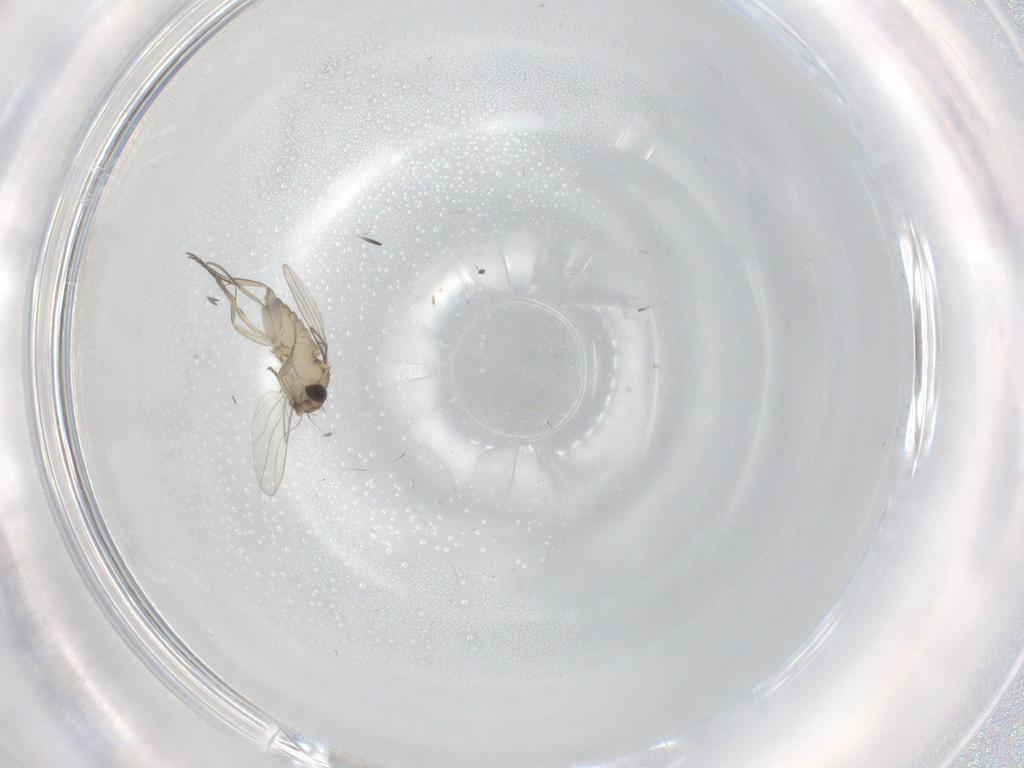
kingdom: Animalia
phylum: Arthropoda
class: Insecta
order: Diptera
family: Phoridae
